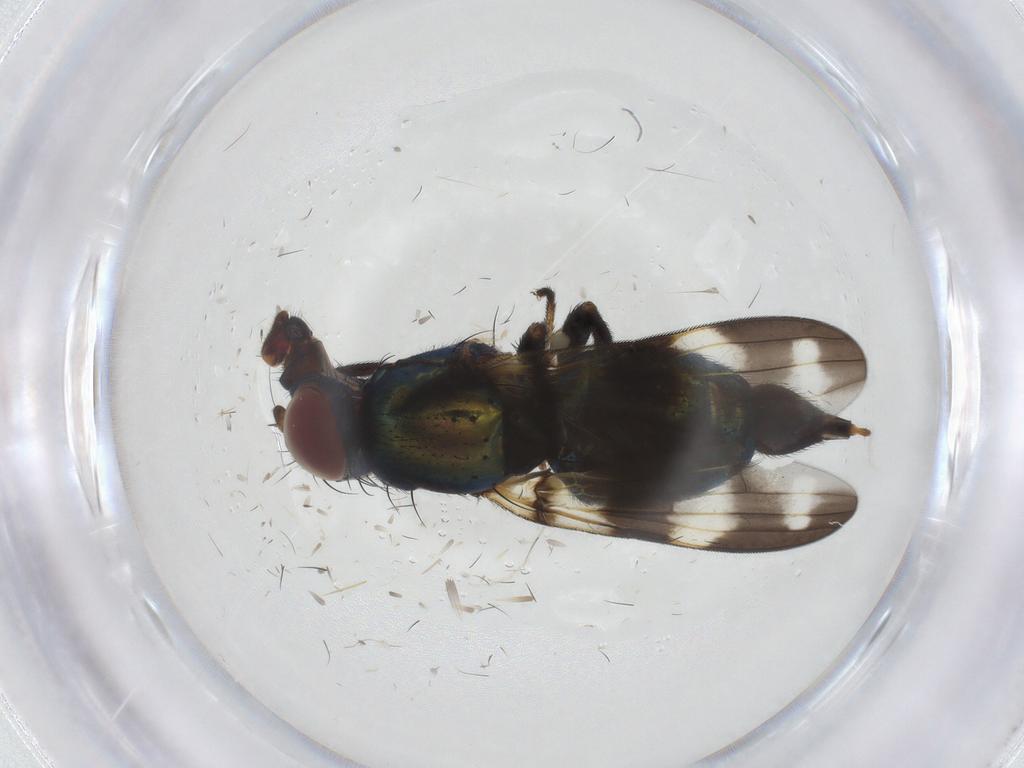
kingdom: Animalia
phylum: Arthropoda
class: Insecta
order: Diptera
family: Ulidiidae
